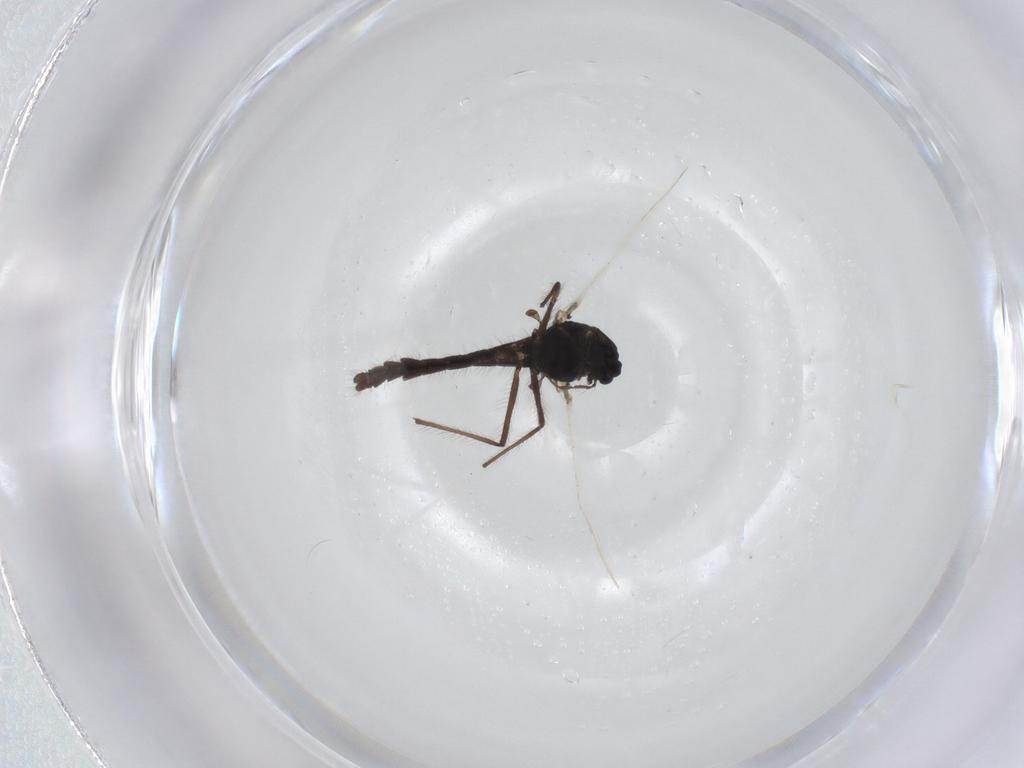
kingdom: Animalia
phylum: Arthropoda
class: Insecta
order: Diptera
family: Chironomidae
